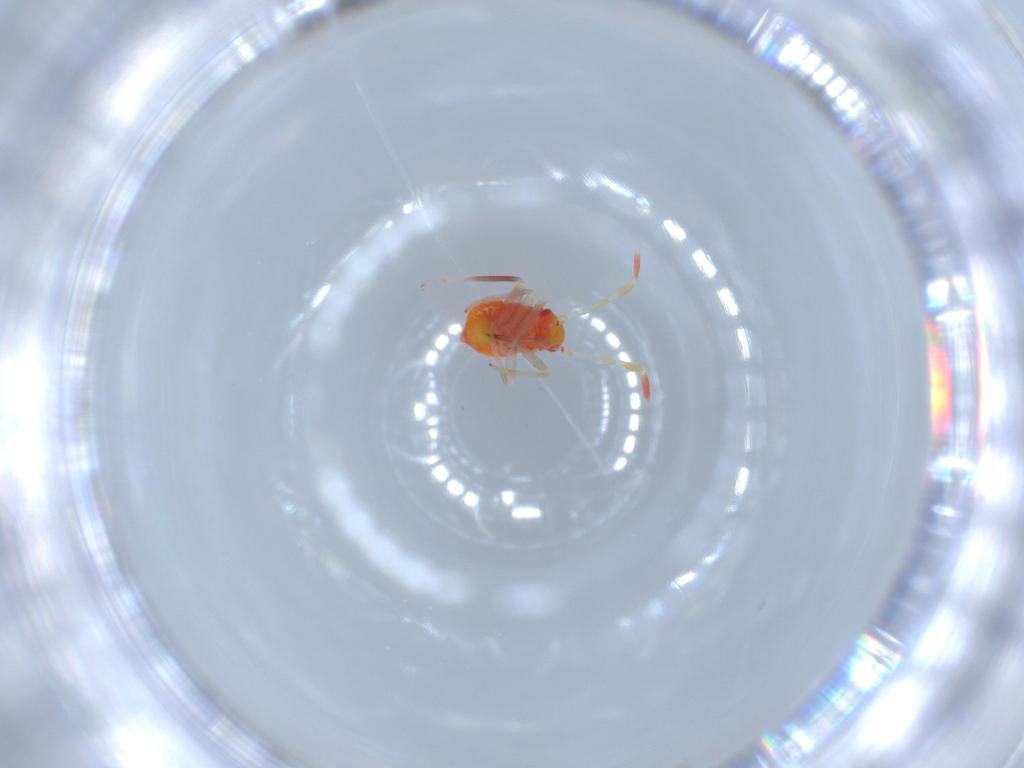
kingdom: Animalia
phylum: Arthropoda
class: Insecta
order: Hemiptera
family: Miridae
